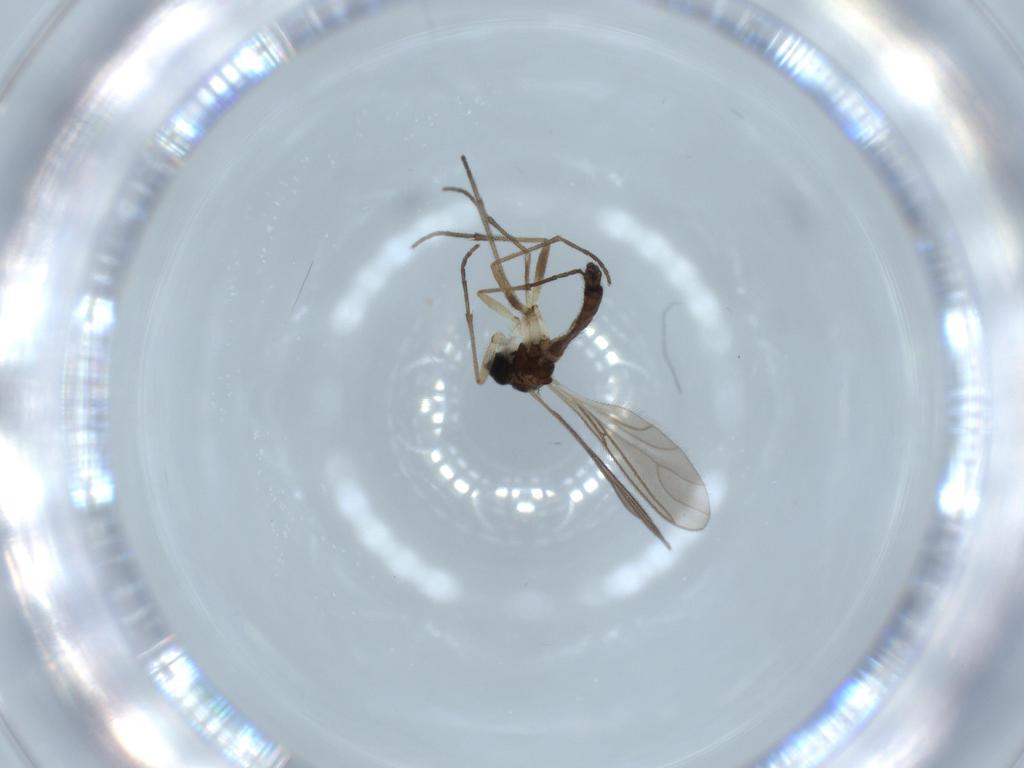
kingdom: Animalia
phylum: Arthropoda
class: Insecta
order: Diptera
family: Sciaridae
